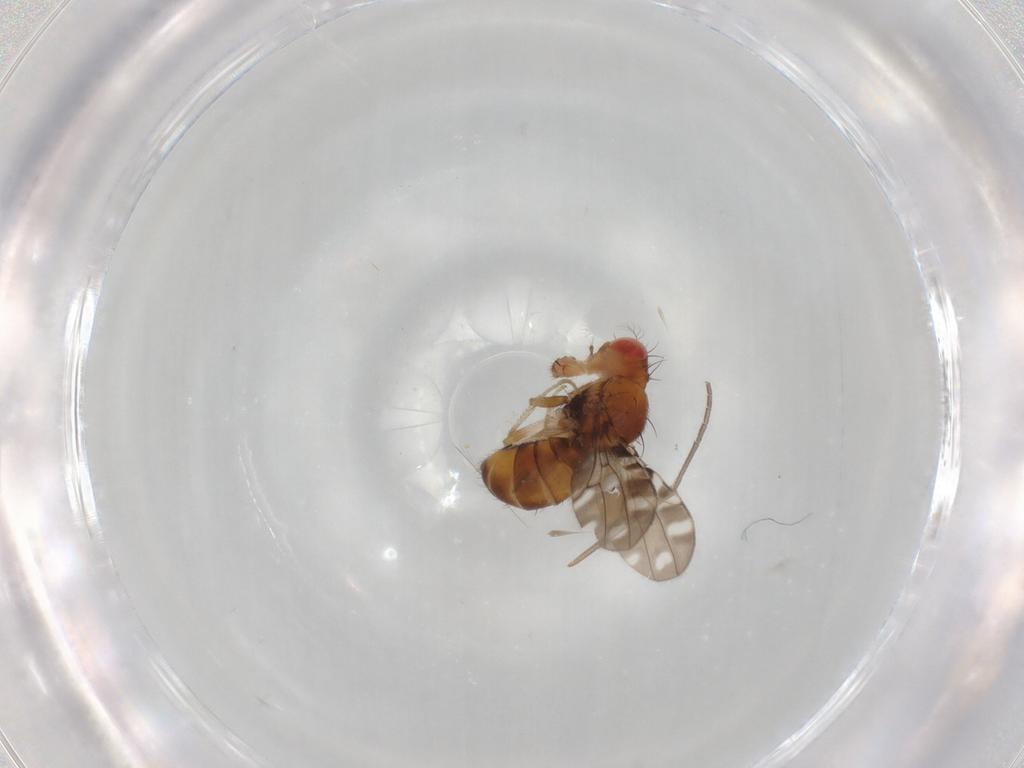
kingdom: Animalia
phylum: Arthropoda
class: Insecta
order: Diptera
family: Drosophilidae
